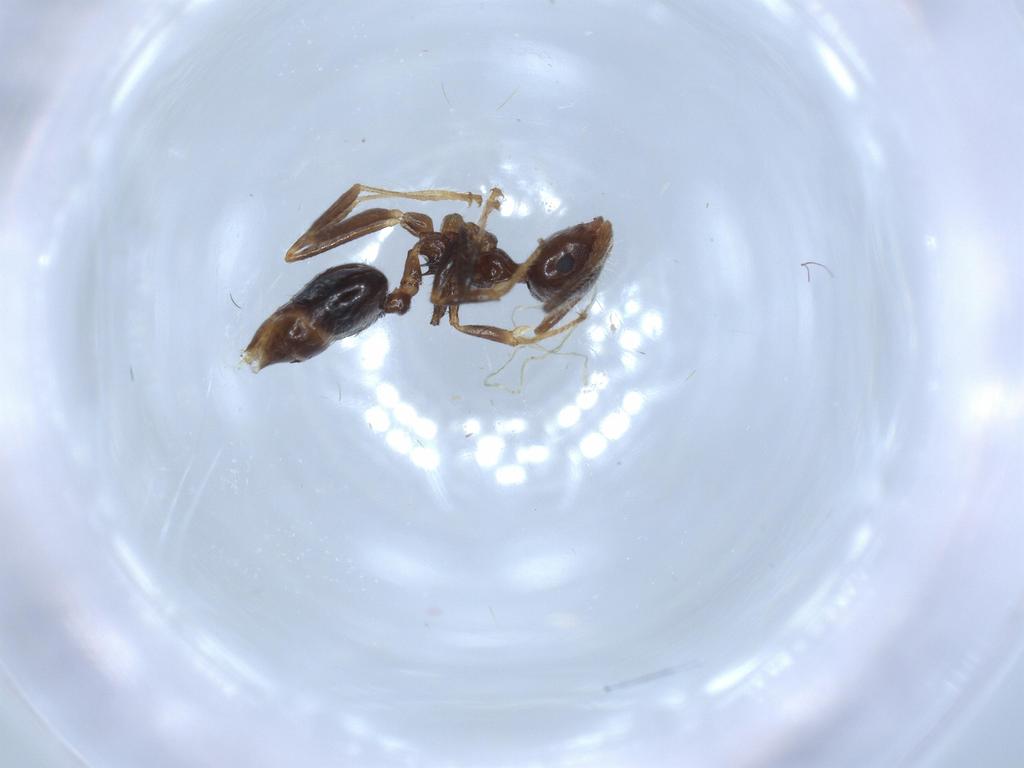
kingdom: Animalia
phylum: Arthropoda
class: Insecta
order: Hymenoptera
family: Formicidae
